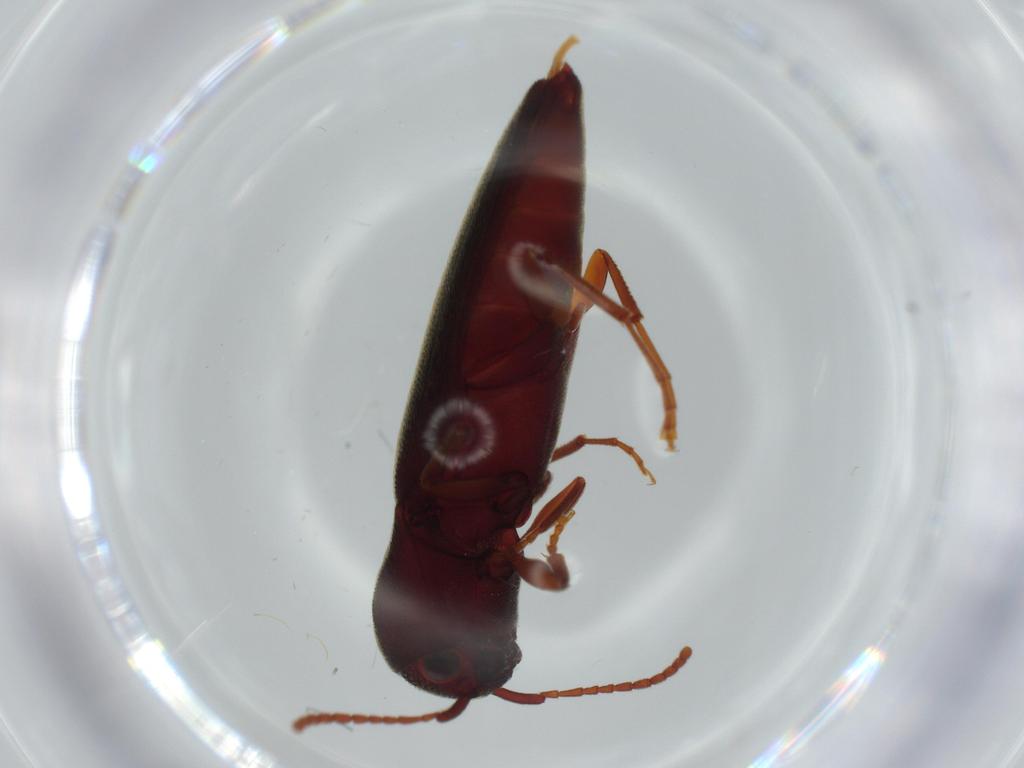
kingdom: Animalia
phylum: Arthropoda
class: Insecta
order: Coleoptera
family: Eucnemidae
